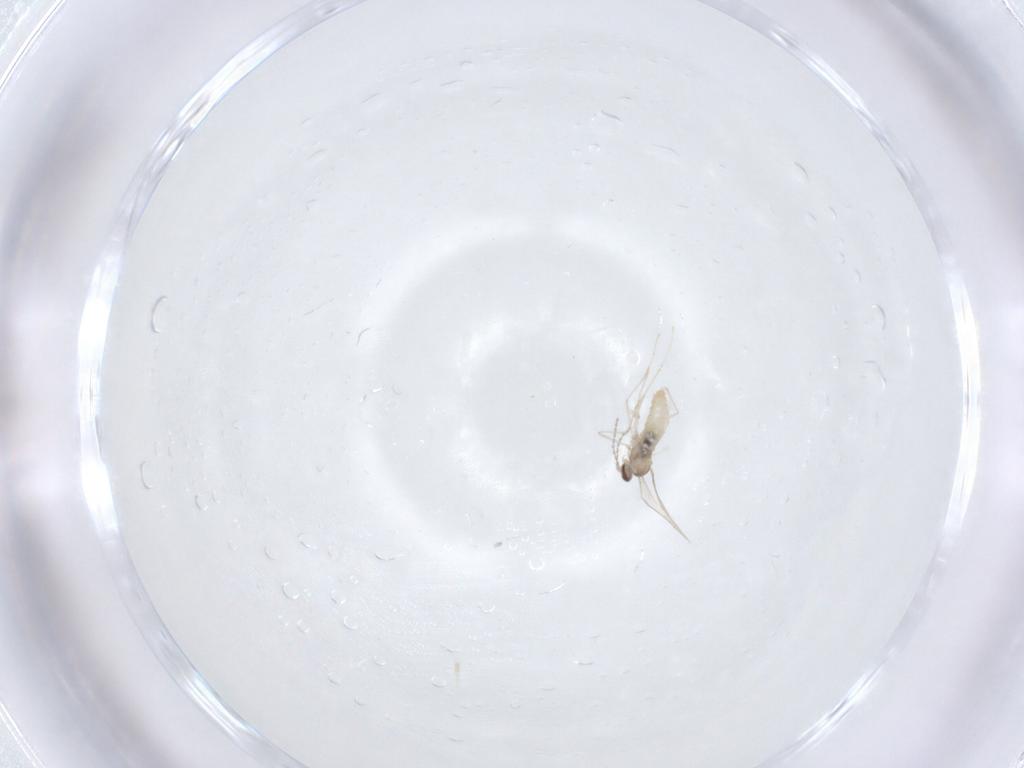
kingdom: Animalia
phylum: Arthropoda
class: Insecta
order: Diptera
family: Cecidomyiidae
